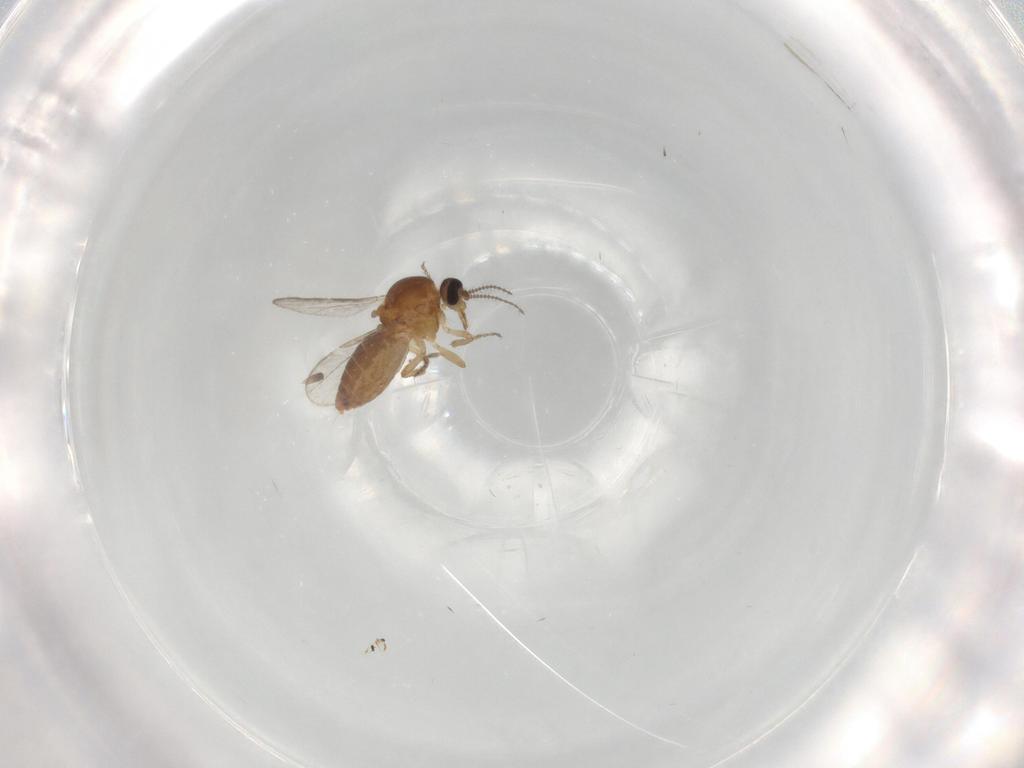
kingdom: Animalia
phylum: Arthropoda
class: Insecta
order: Diptera
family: Ceratopogonidae
